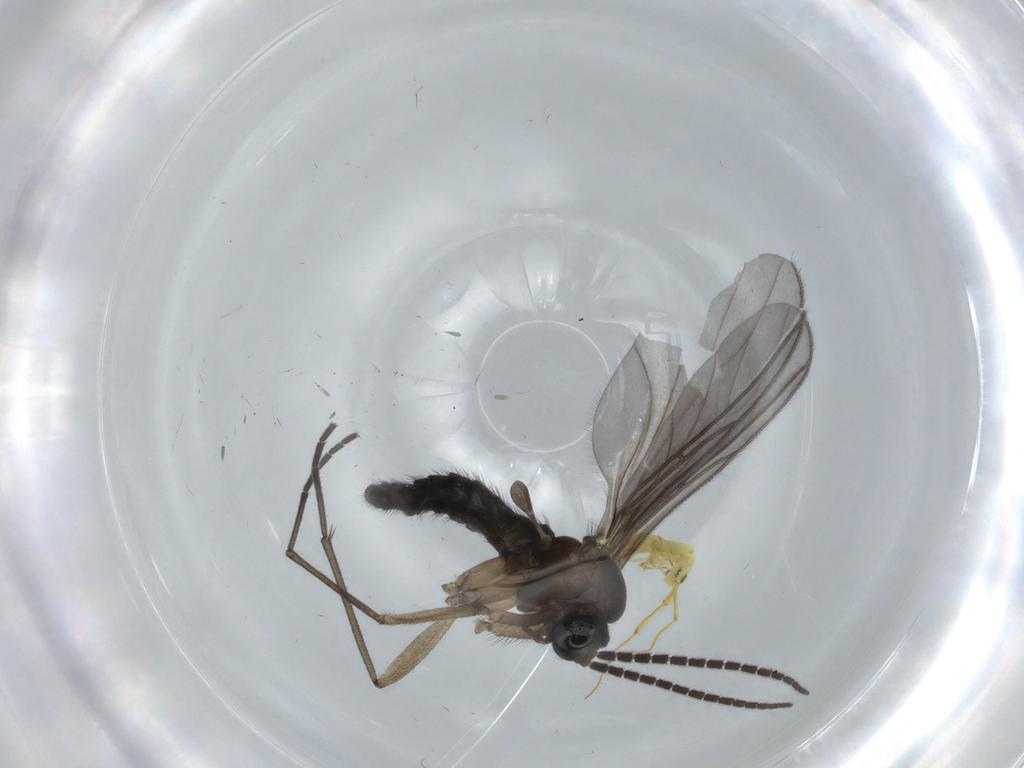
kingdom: Animalia
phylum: Arthropoda
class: Insecta
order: Diptera
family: Sciaridae
